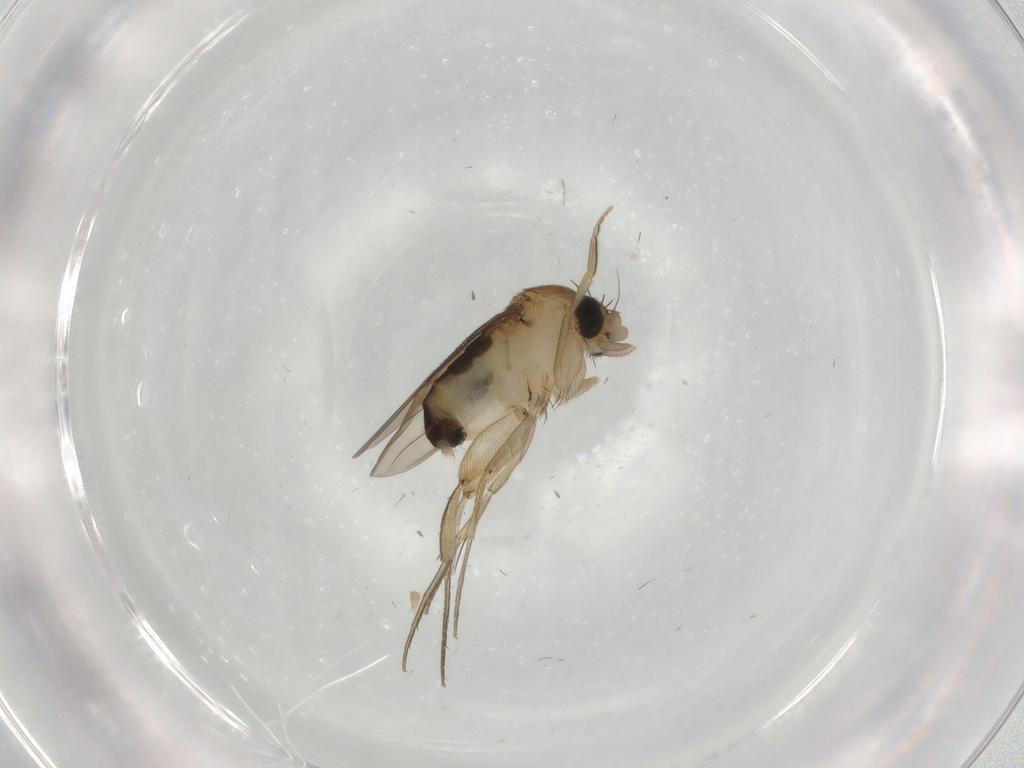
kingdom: Animalia
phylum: Arthropoda
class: Insecta
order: Diptera
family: Phoridae
